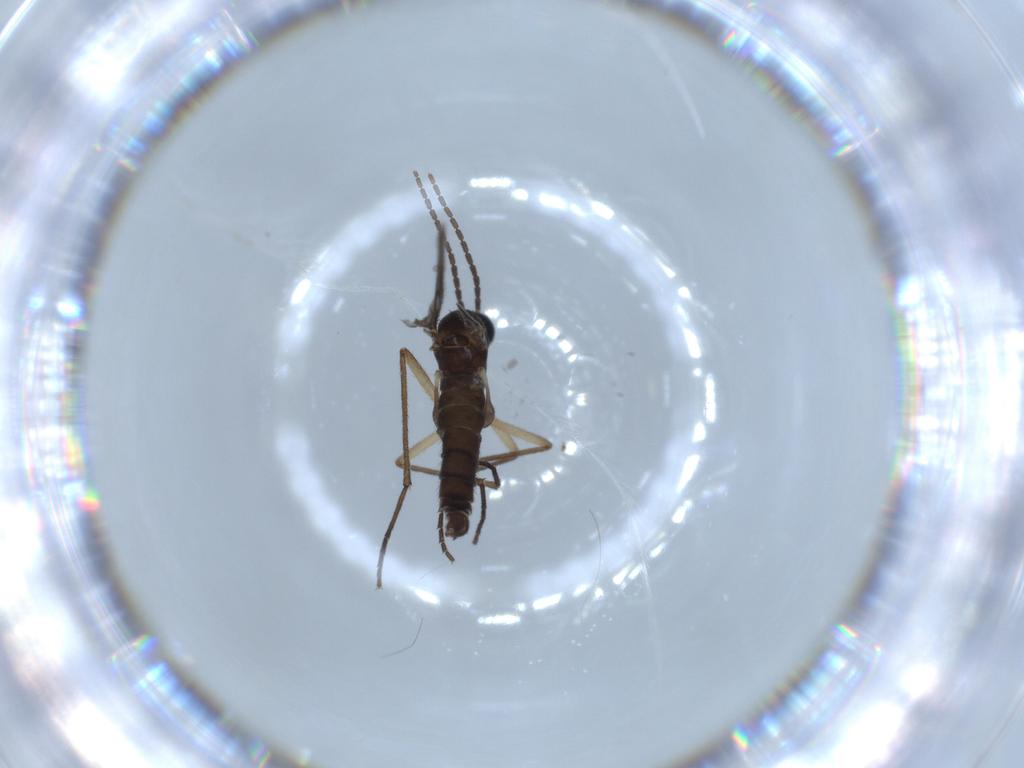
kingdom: Animalia
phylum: Arthropoda
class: Insecta
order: Diptera
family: Sciaridae
